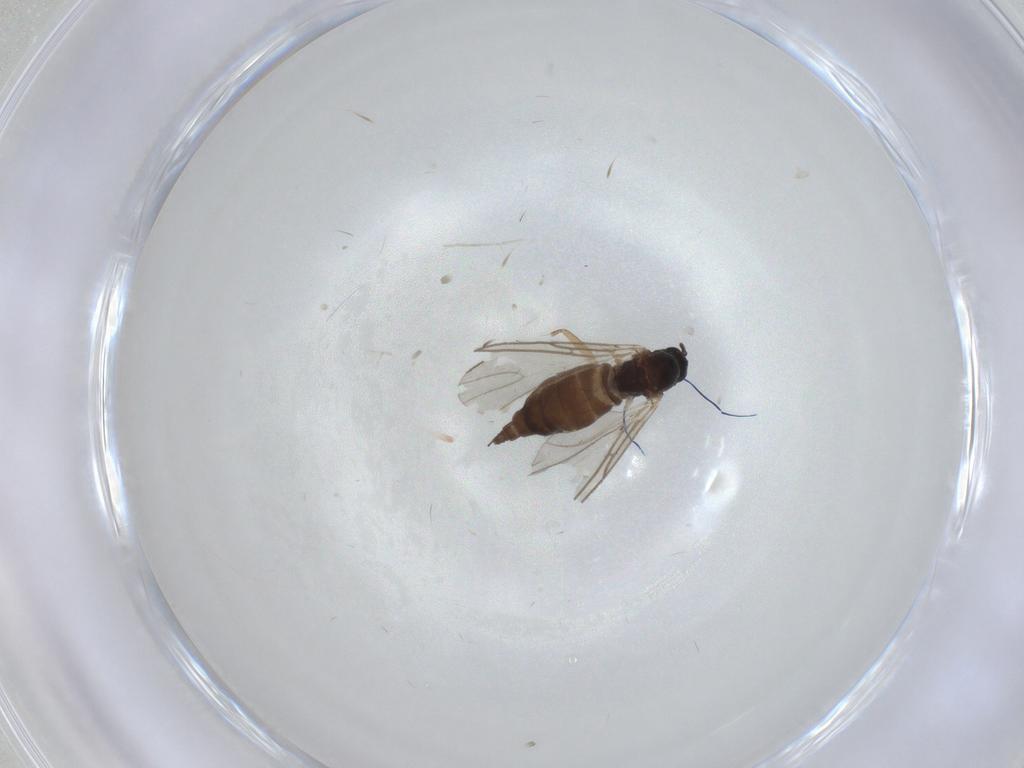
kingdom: Animalia
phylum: Arthropoda
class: Insecta
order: Diptera
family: Sciaridae
